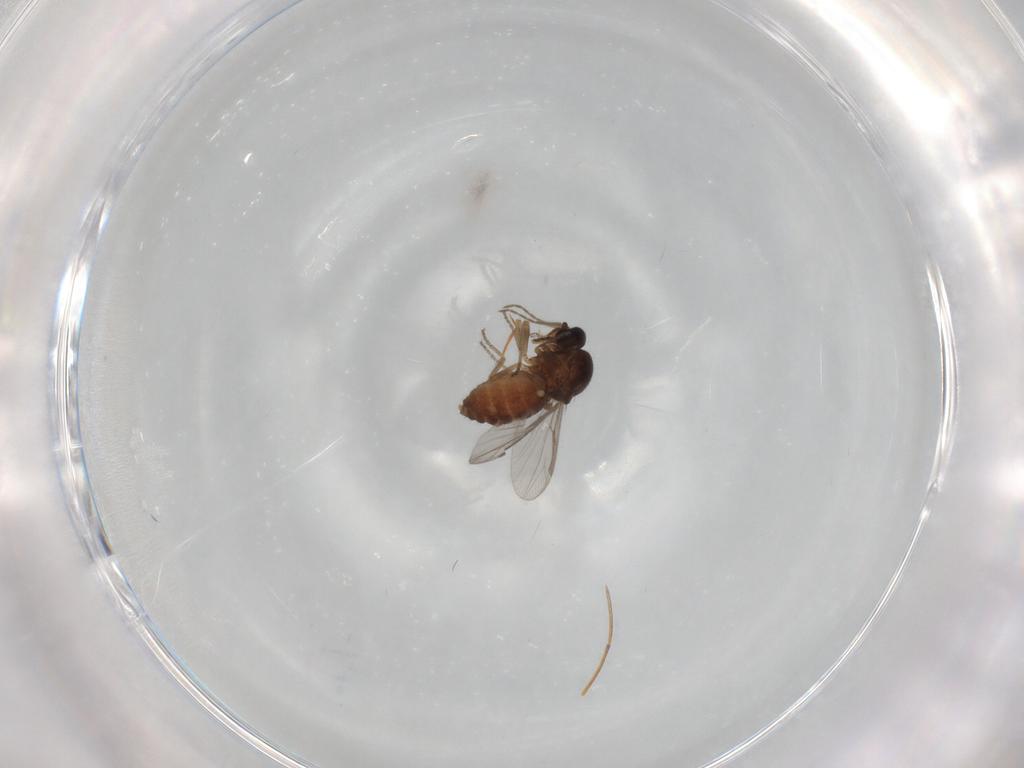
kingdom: Animalia
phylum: Arthropoda
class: Insecta
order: Diptera
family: Ceratopogonidae
